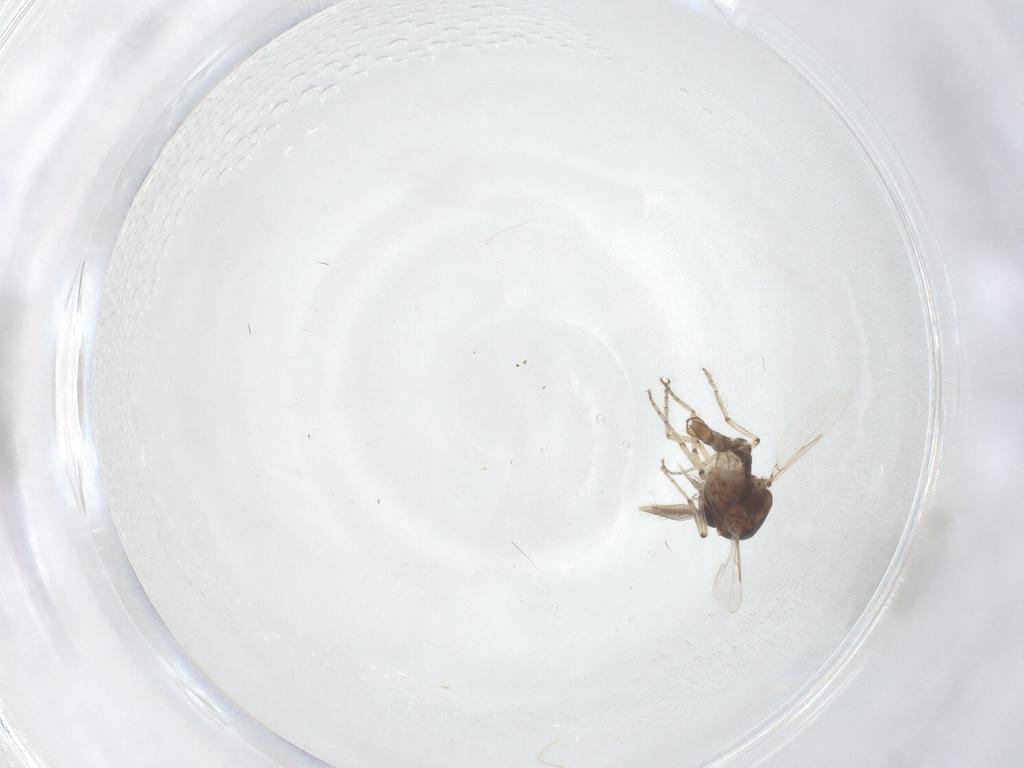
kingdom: Animalia
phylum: Arthropoda
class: Insecta
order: Diptera
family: Ceratopogonidae
